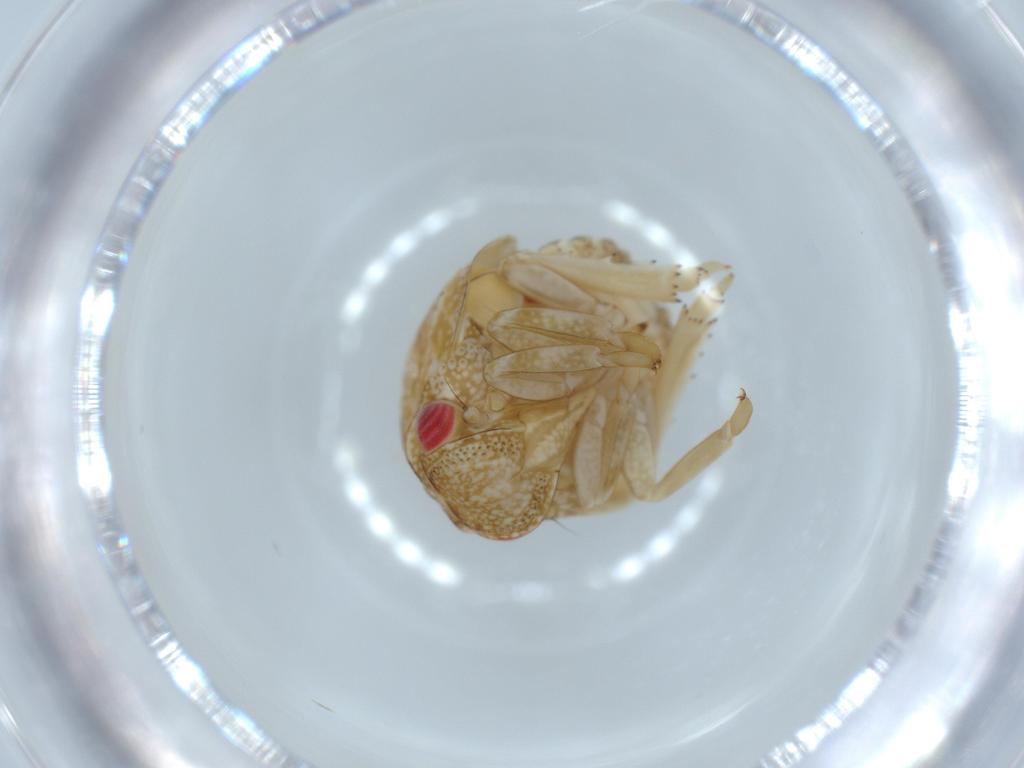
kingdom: Animalia
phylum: Arthropoda
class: Insecta
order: Hemiptera
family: Acanaloniidae
